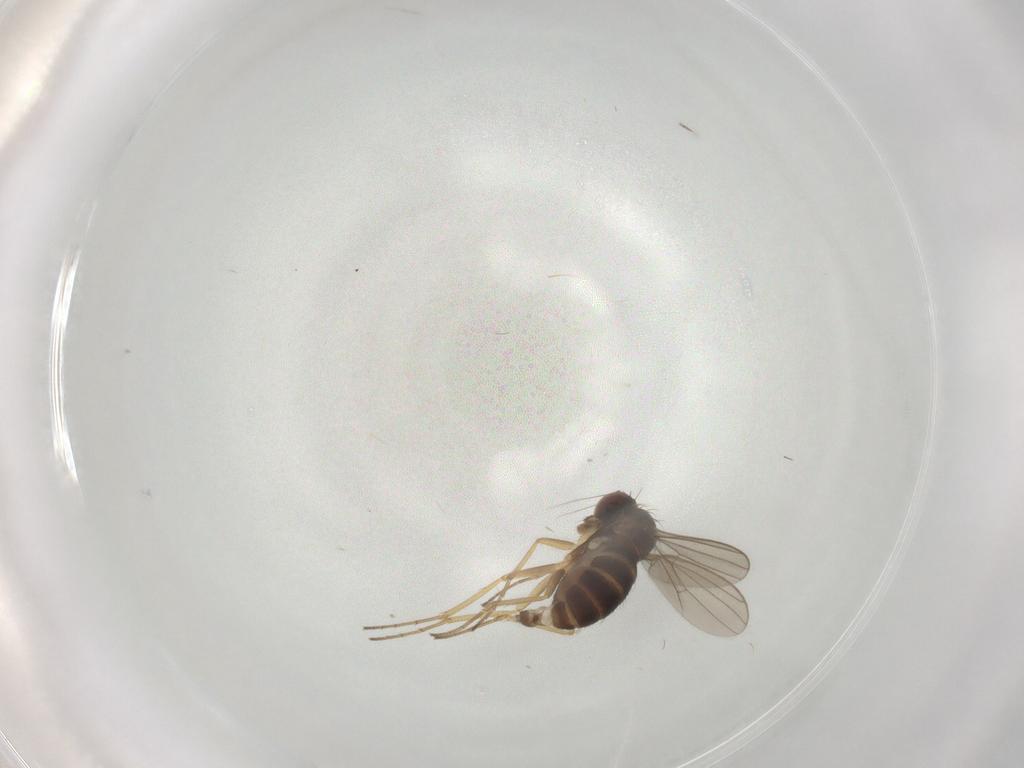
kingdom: Animalia
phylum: Arthropoda
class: Insecta
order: Diptera
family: Dolichopodidae
